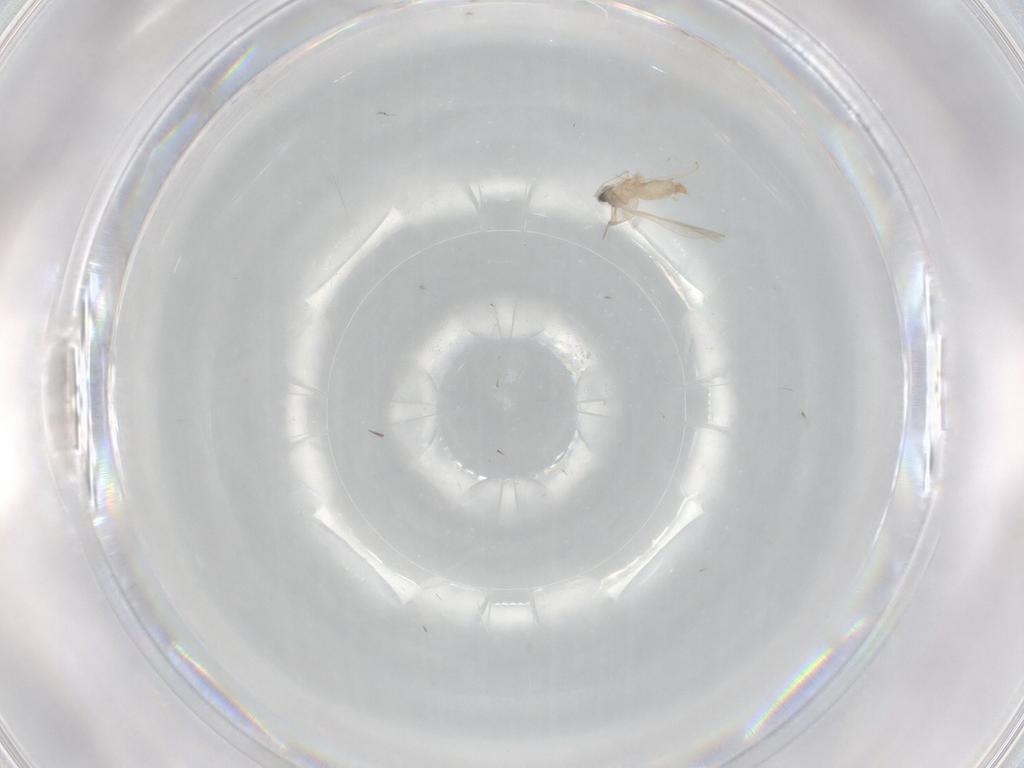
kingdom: Animalia
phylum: Arthropoda
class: Insecta
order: Diptera
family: Cecidomyiidae
